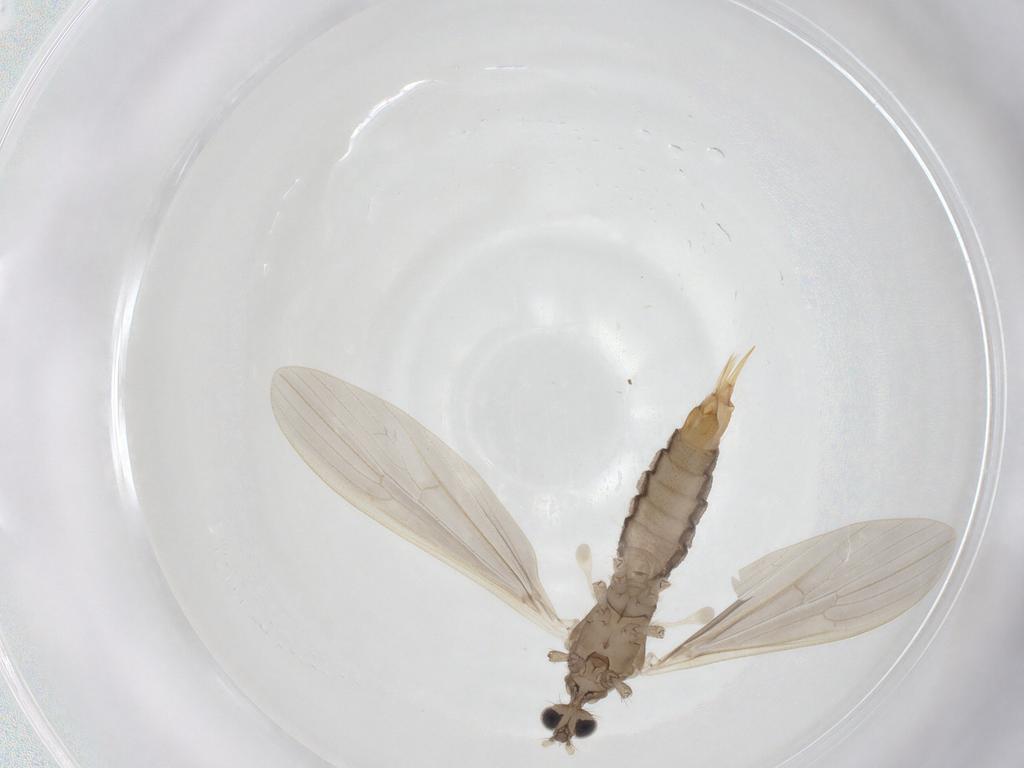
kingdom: Animalia
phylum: Arthropoda
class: Insecta
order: Diptera
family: Limoniidae
